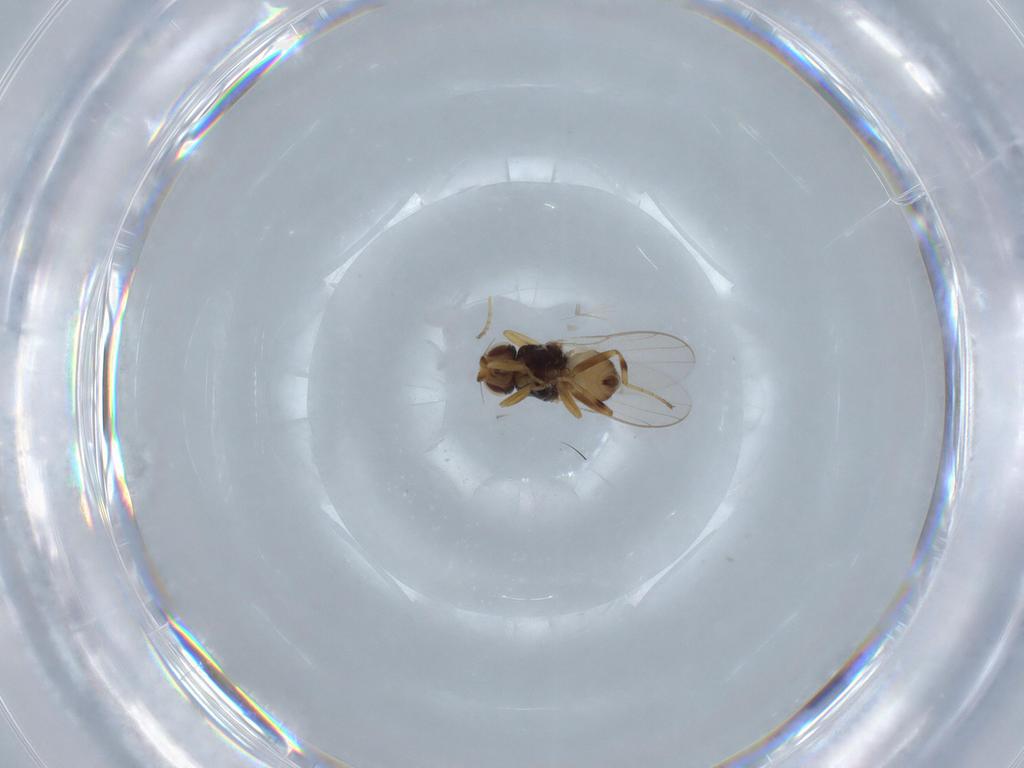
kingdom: Animalia
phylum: Arthropoda
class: Insecta
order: Diptera
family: Chloropidae
